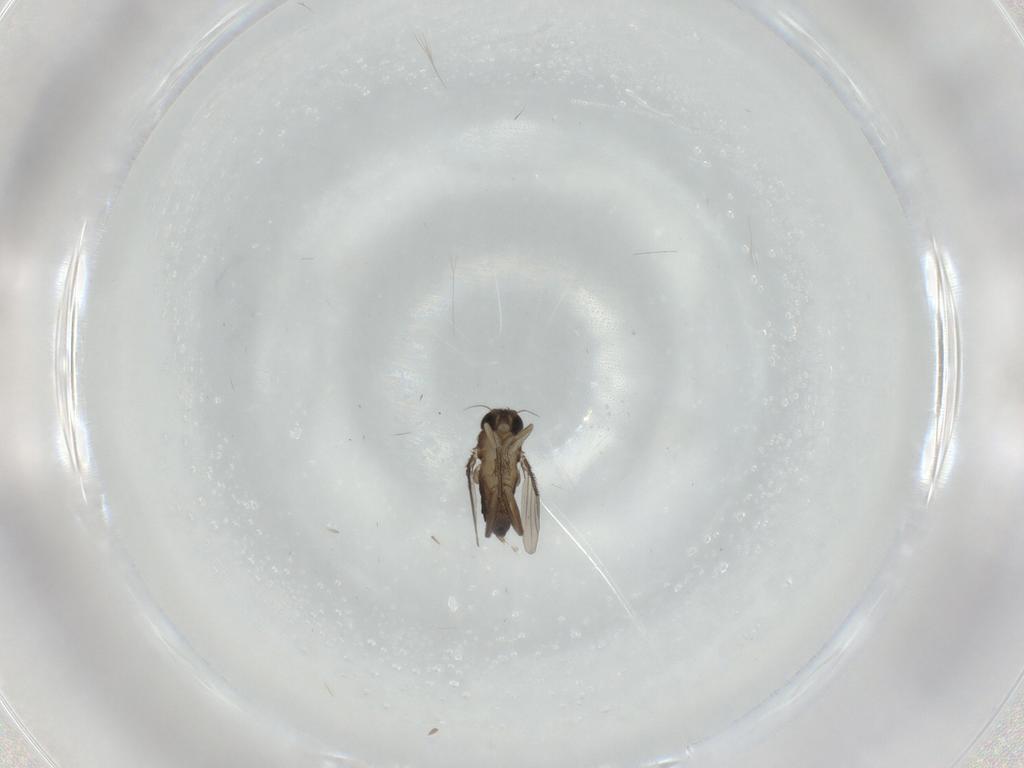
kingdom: Animalia
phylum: Arthropoda
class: Insecta
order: Diptera
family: Phoridae
